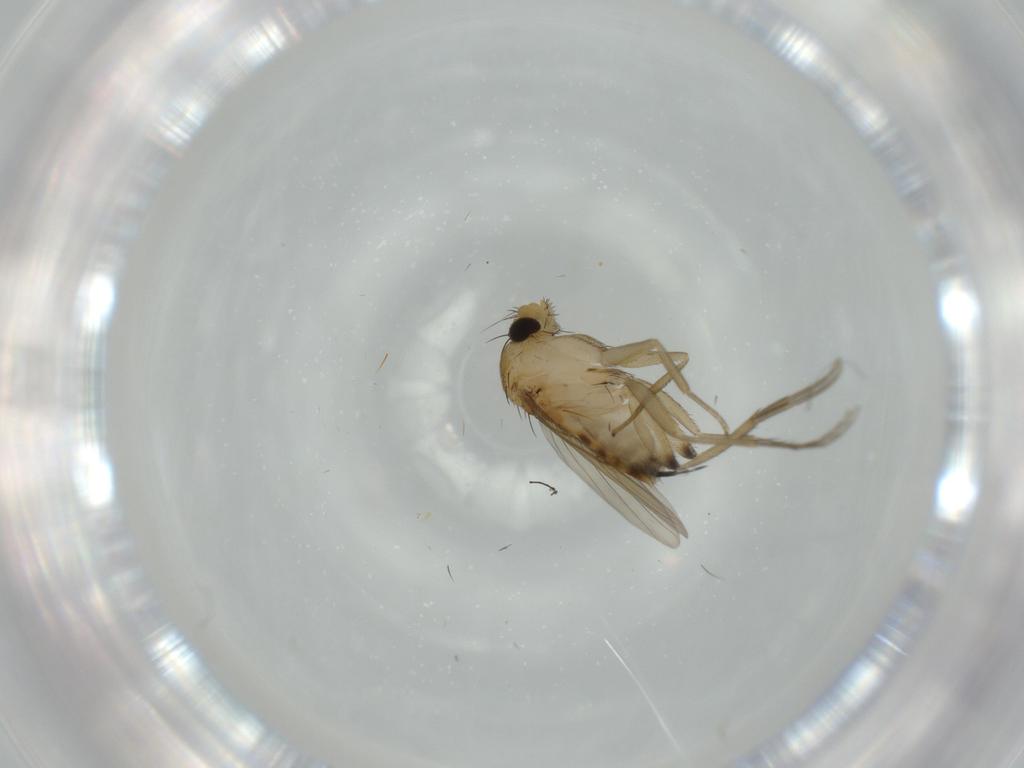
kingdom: Animalia
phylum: Arthropoda
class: Insecta
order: Diptera
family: Phoridae
